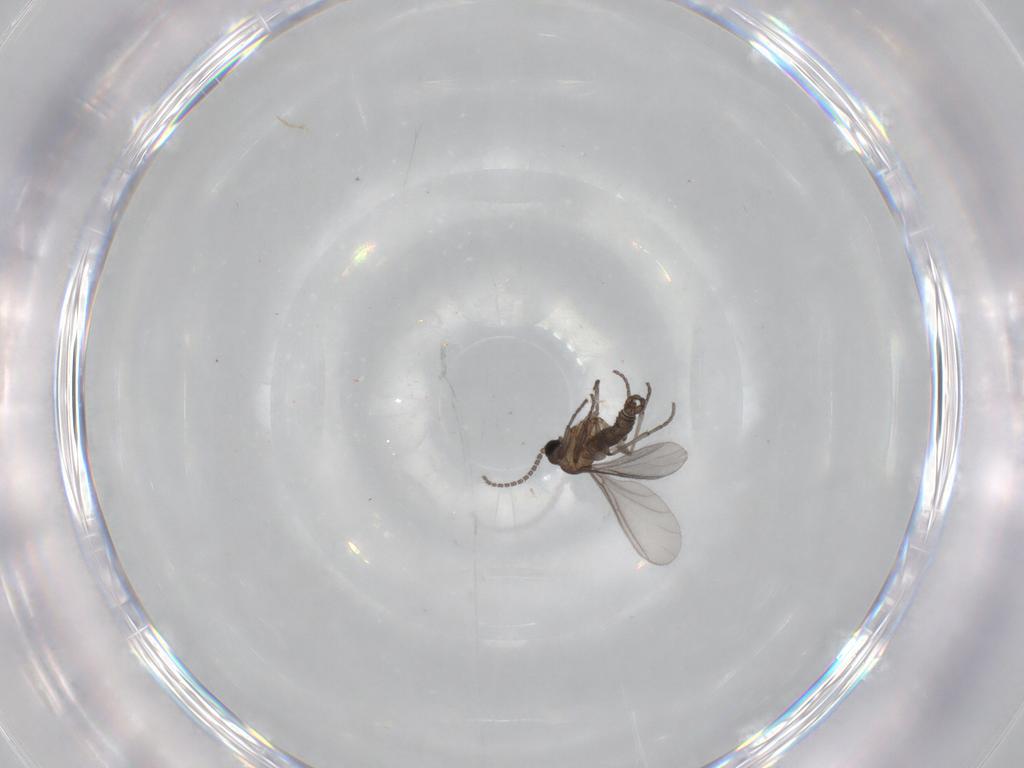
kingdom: Animalia
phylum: Arthropoda
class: Insecta
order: Diptera
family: Sciaridae
